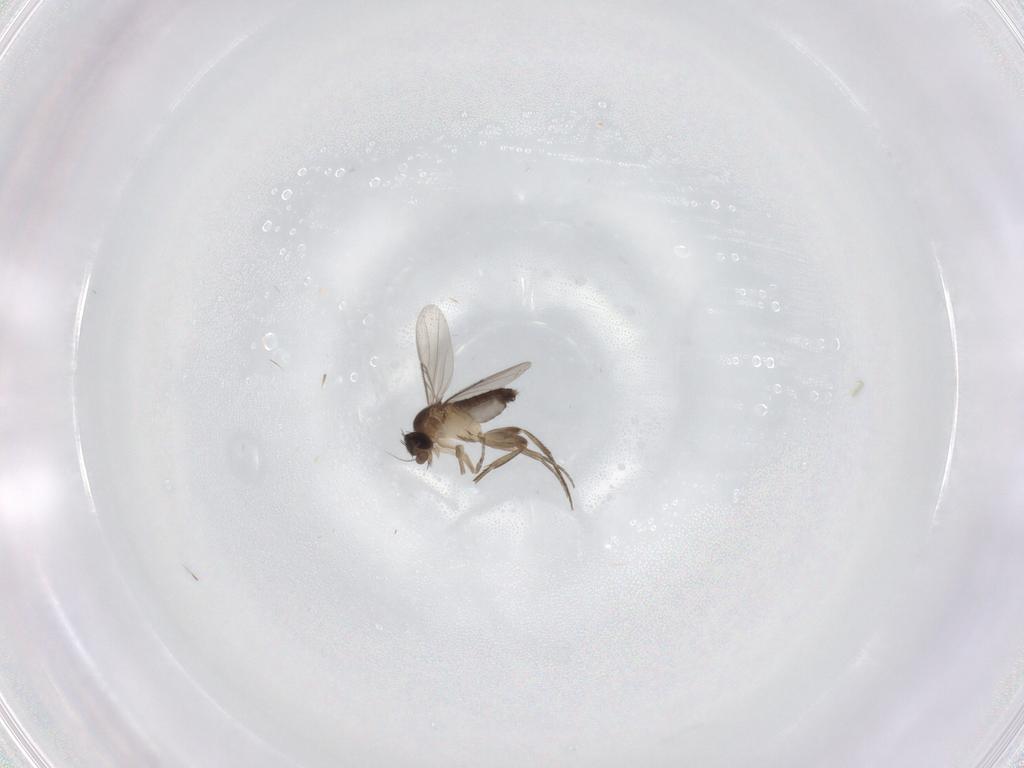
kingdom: Animalia
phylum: Arthropoda
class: Insecta
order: Diptera
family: Phoridae
